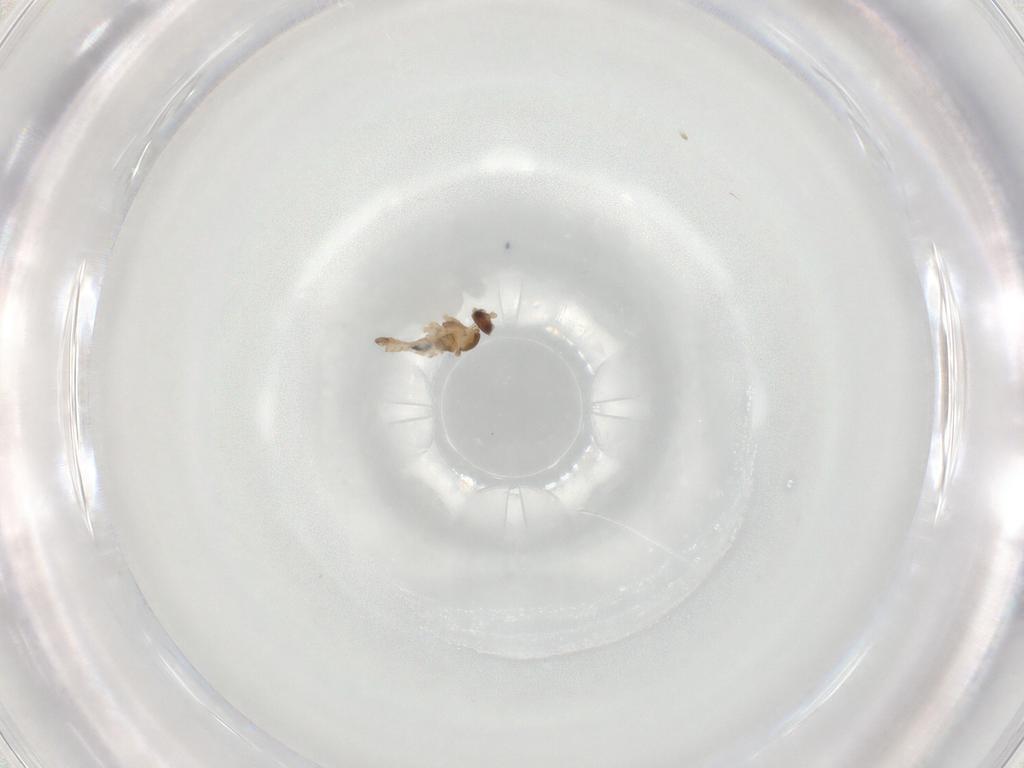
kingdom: Animalia
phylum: Arthropoda
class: Insecta
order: Diptera
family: Cecidomyiidae
